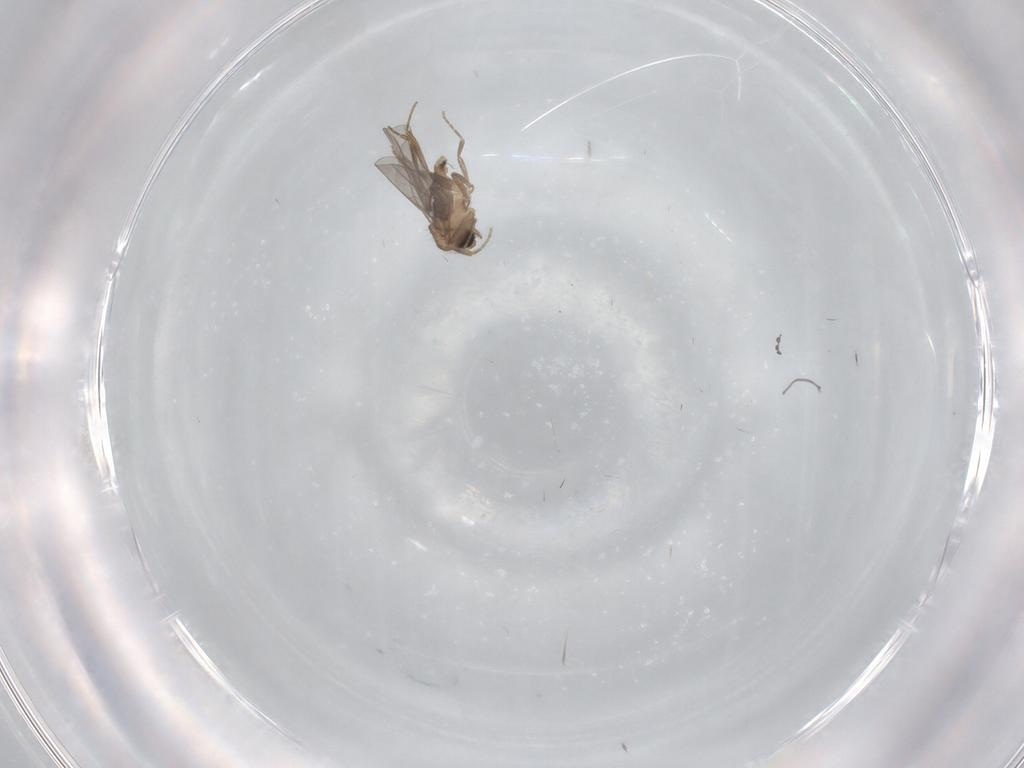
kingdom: Animalia
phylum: Arthropoda
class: Insecta
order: Diptera
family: Chironomidae
